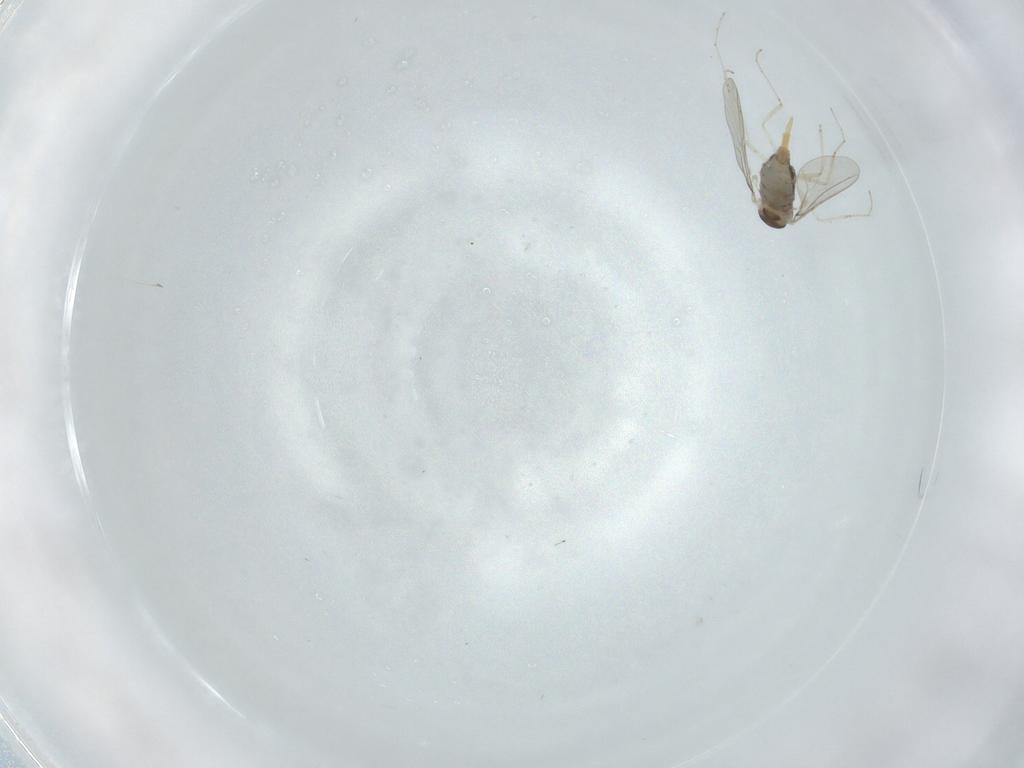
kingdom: Animalia
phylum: Arthropoda
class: Insecta
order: Diptera
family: Cecidomyiidae
